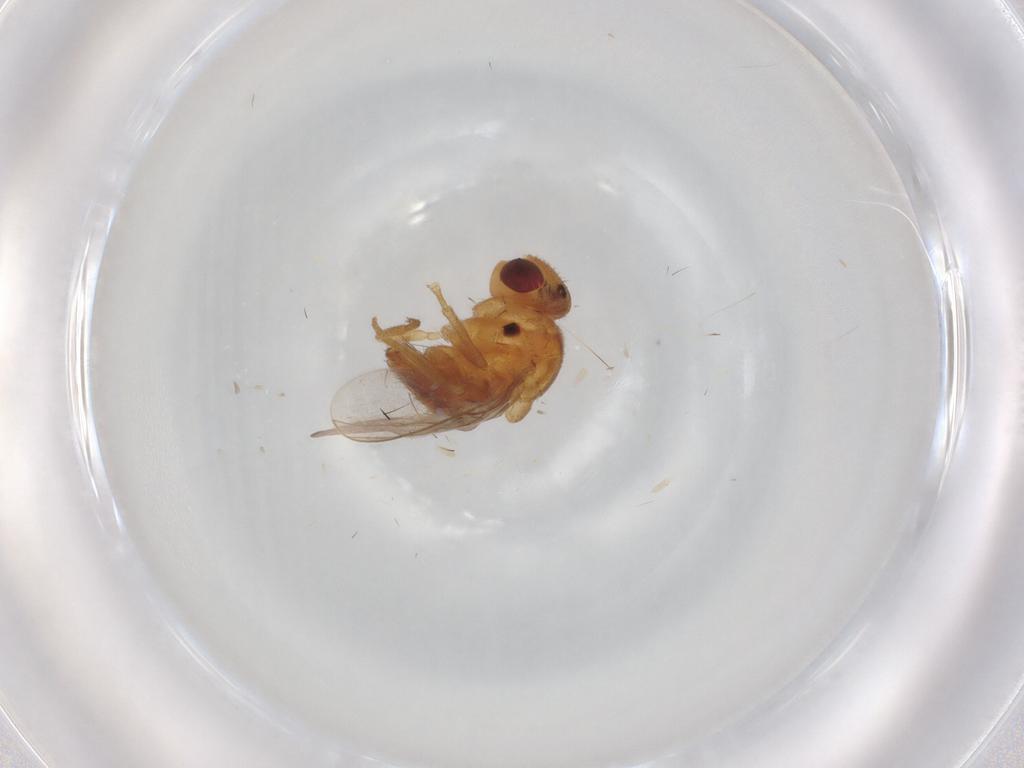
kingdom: Animalia
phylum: Arthropoda
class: Insecta
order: Diptera
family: Chloropidae
